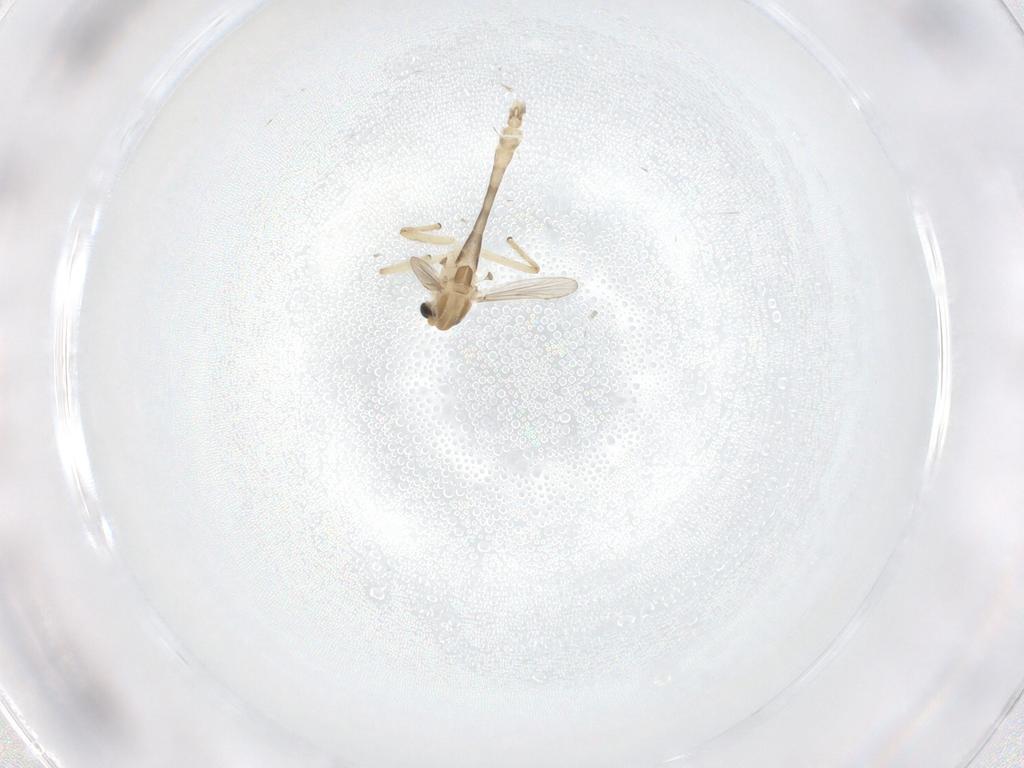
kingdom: Animalia
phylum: Arthropoda
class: Insecta
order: Diptera
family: Chironomidae
